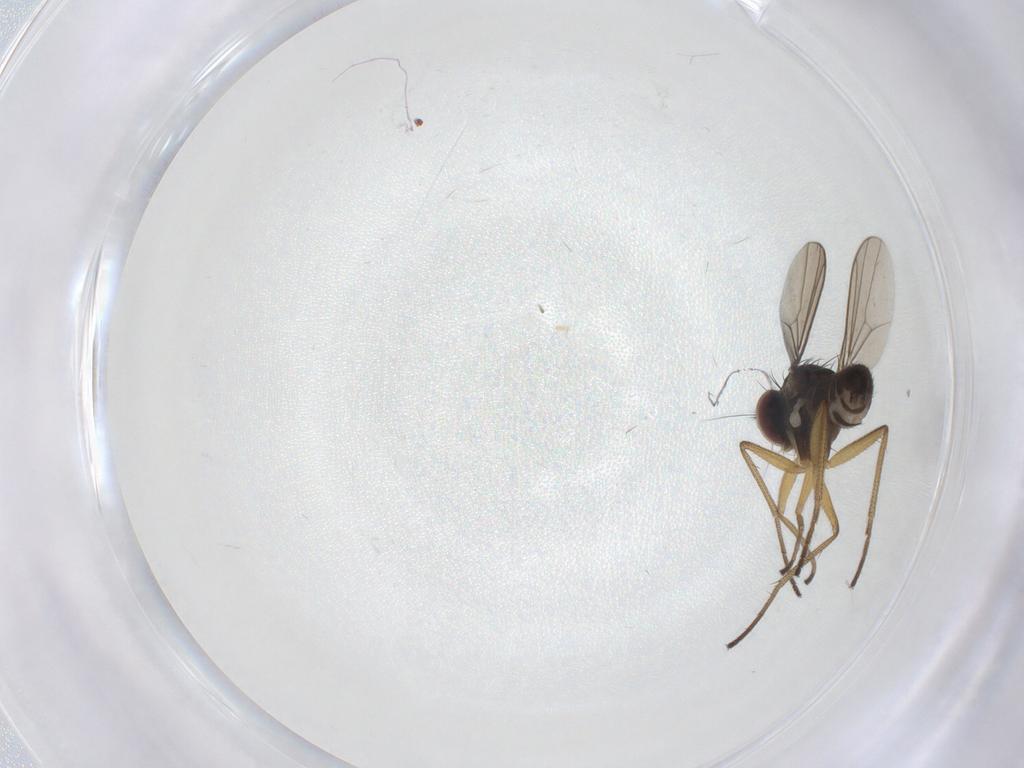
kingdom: Animalia
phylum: Arthropoda
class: Insecta
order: Diptera
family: Dolichopodidae
